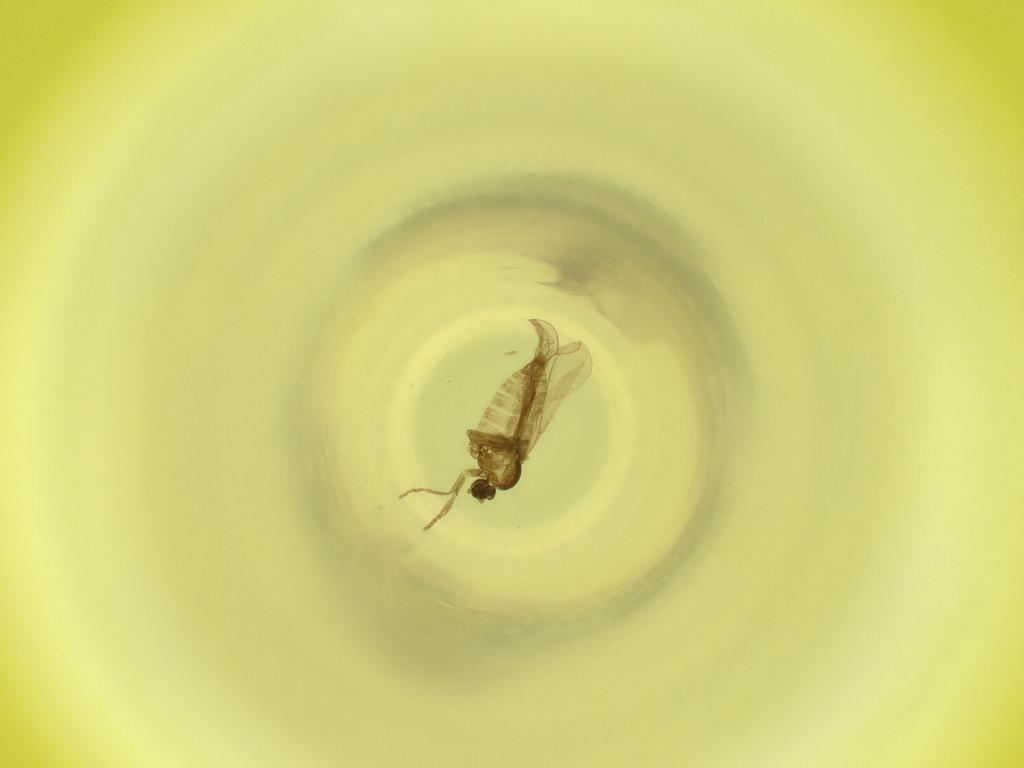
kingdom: Animalia
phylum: Arthropoda
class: Insecta
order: Diptera
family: Cecidomyiidae
